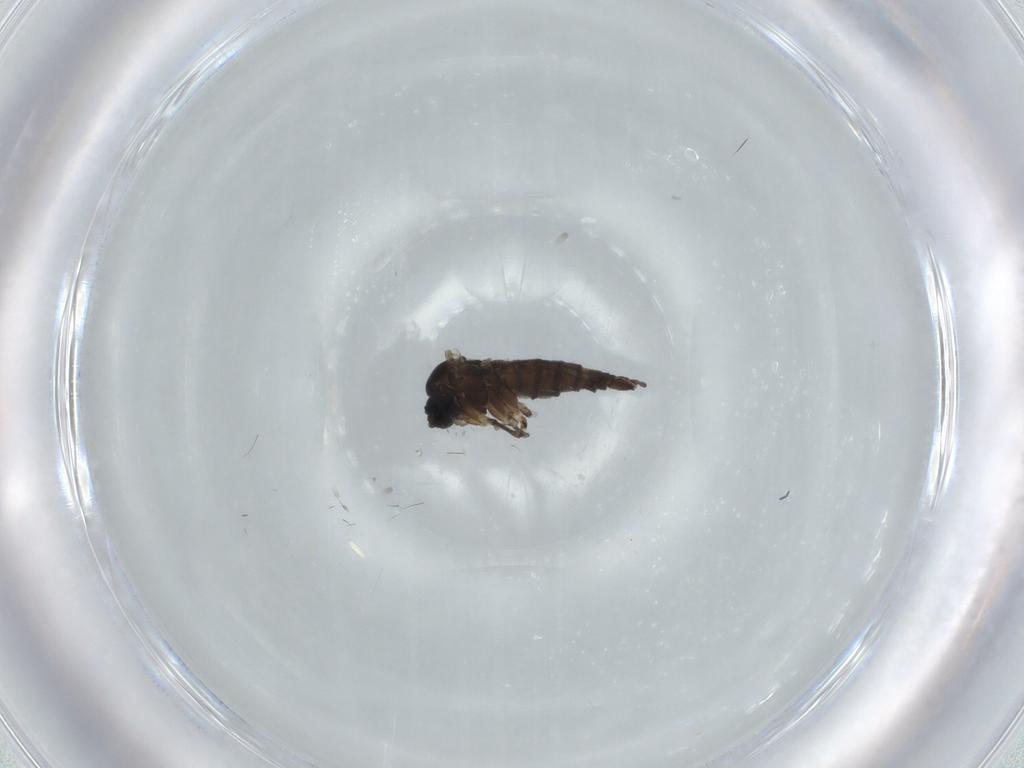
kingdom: Animalia
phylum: Arthropoda
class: Insecta
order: Diptera
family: Sciaridae
